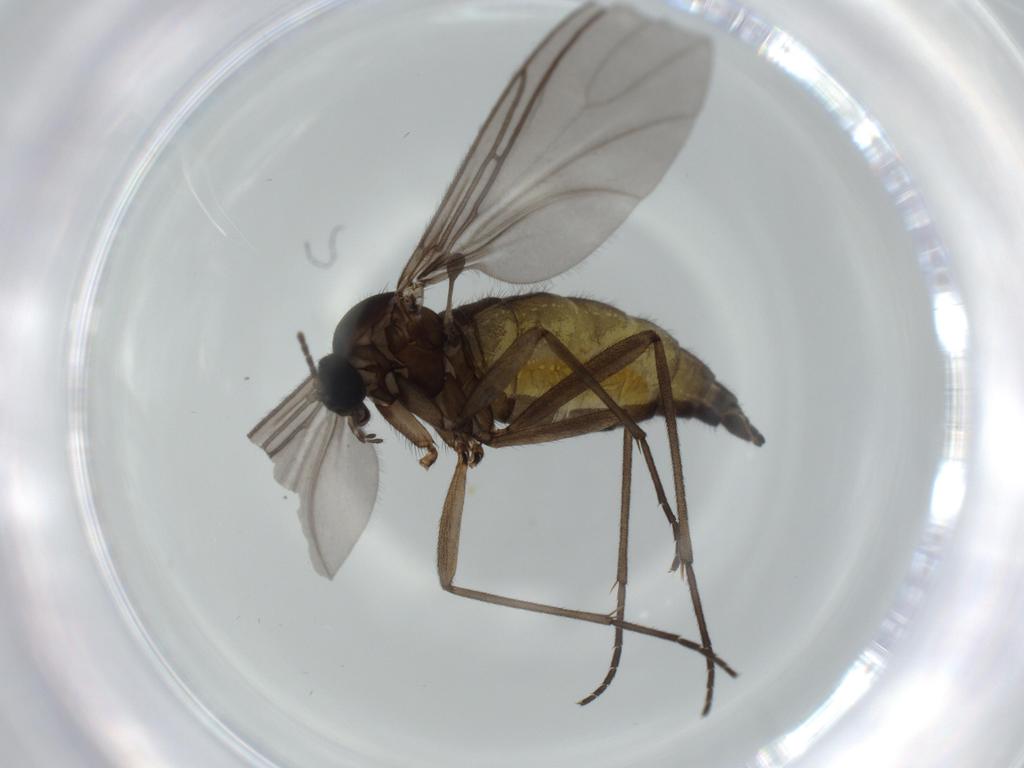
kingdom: Animalia
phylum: Arthropoda
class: Insecta
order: Diptera
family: Sciaridae
